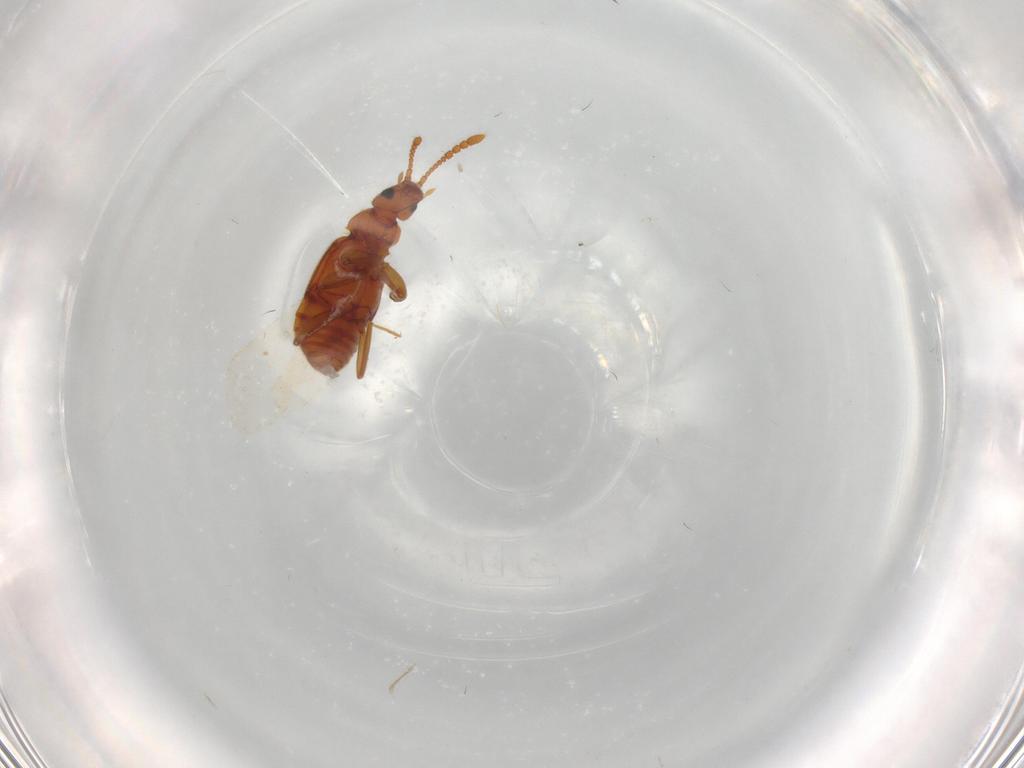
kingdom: Animalia
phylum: Arthropoda
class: Insecta
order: Coleoptera
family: Melandryidae
